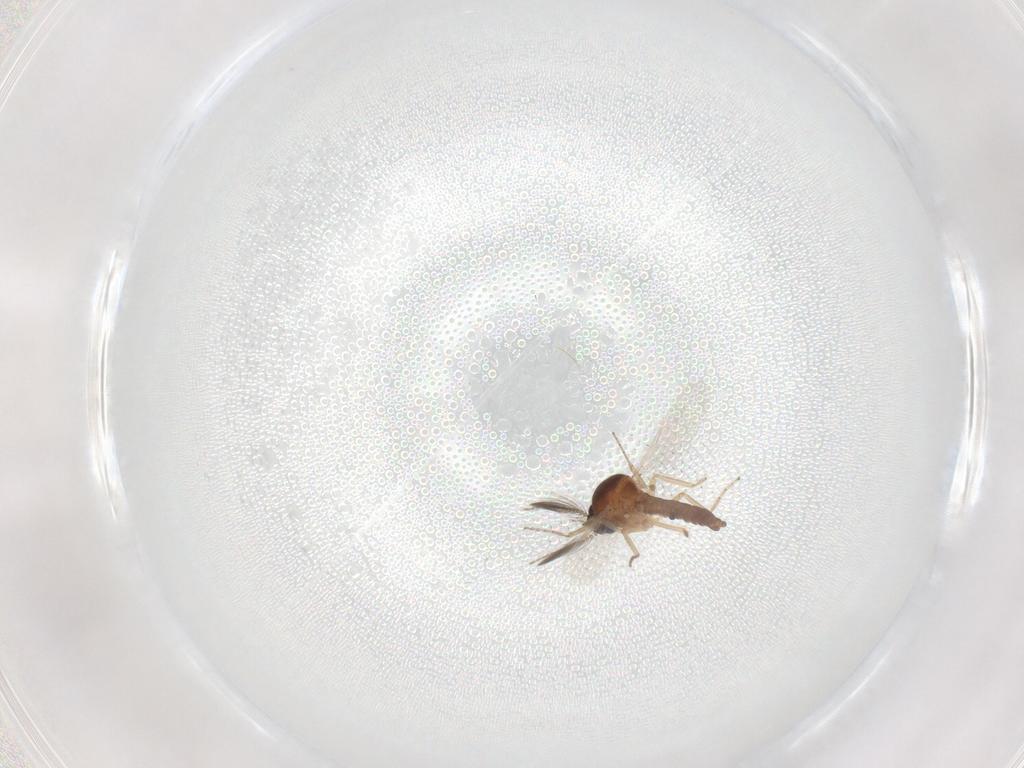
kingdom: Animalia
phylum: Arthropoda
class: Insecta
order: Diptera
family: Ceratopogonidae
